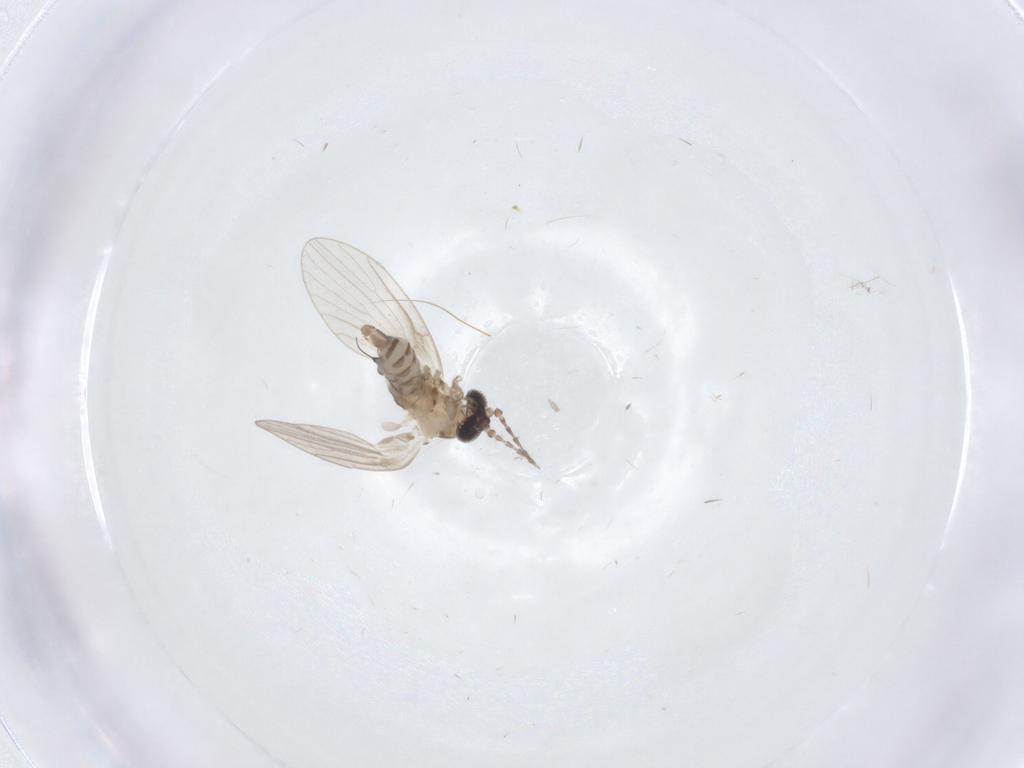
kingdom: Animalia
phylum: Arthropoda
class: Insecta
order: Diptera
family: Psychodidae
